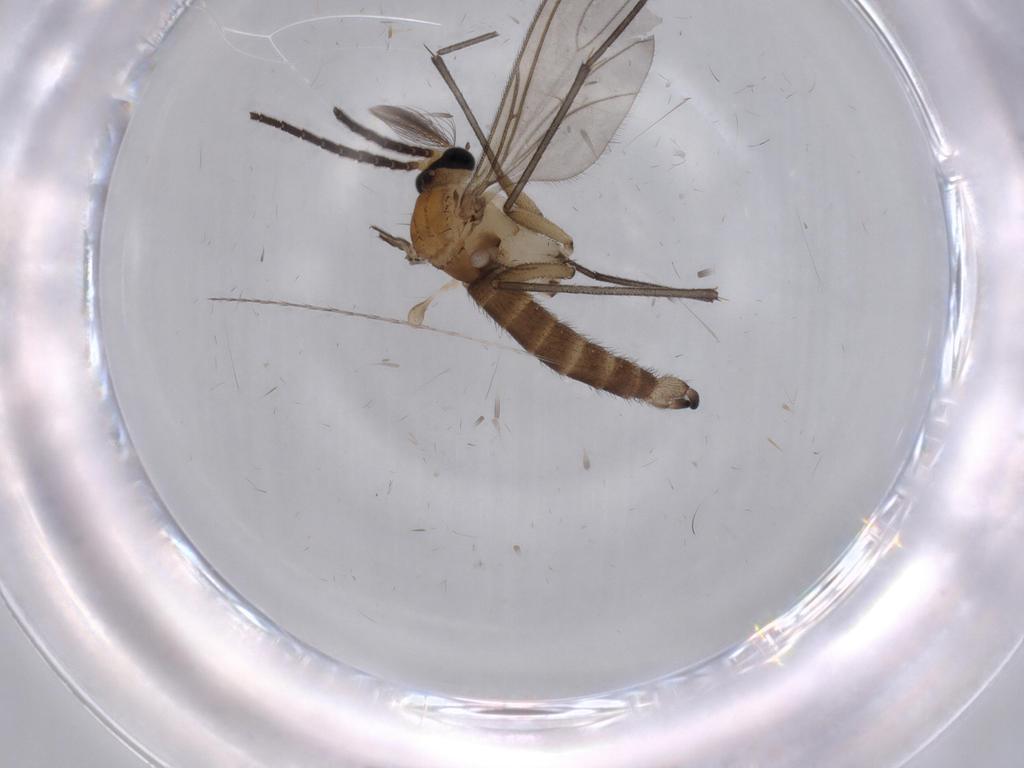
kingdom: Animalia
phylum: Arthropoda
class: Insecta
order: Diptera
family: Sciaridae
